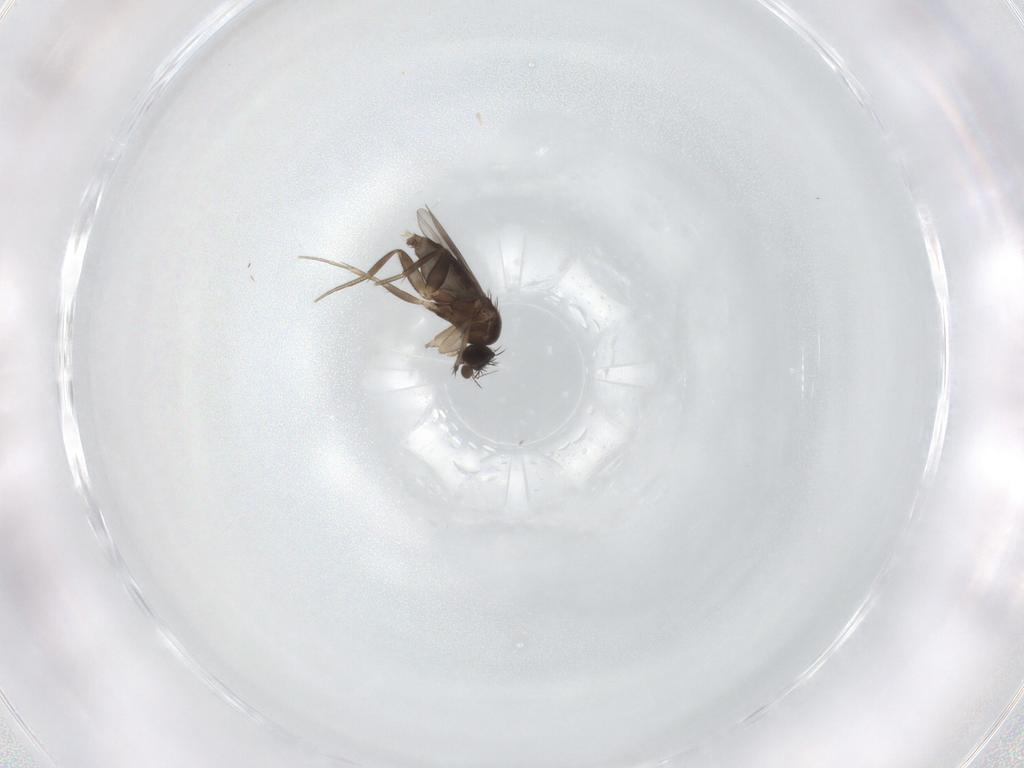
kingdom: Animalia
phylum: Arthropoda
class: Insecta
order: Diptera
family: Phoridae
